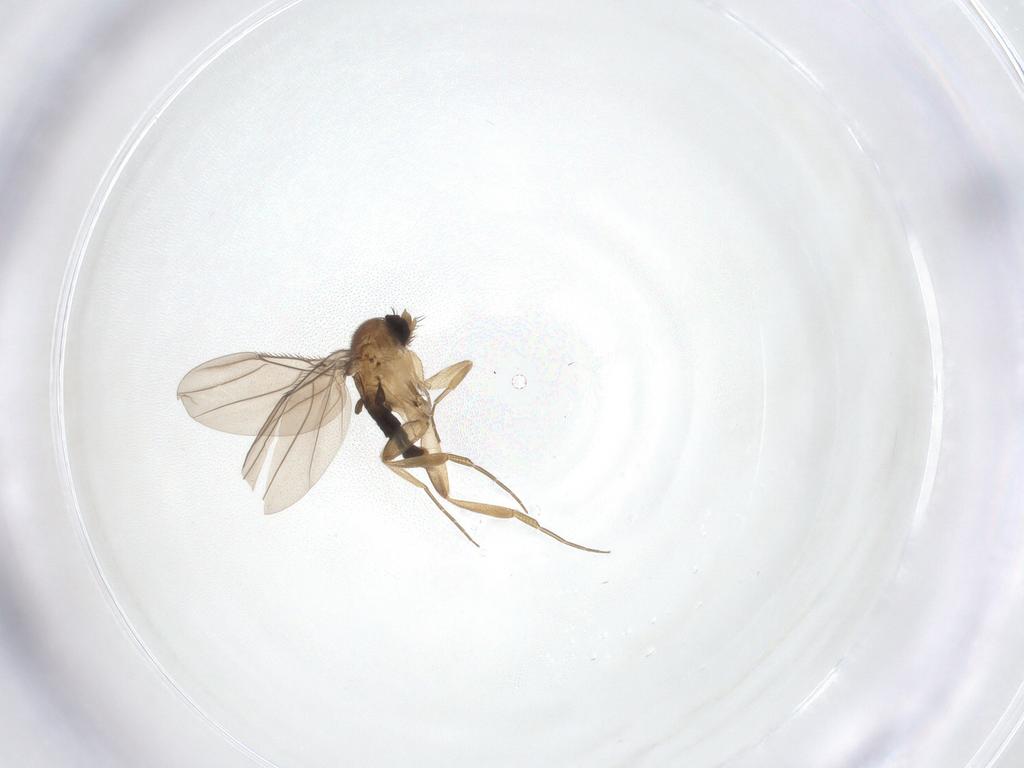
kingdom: Animalia
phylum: Arthropoda
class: Insecta
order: Diptera
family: Phoridae
